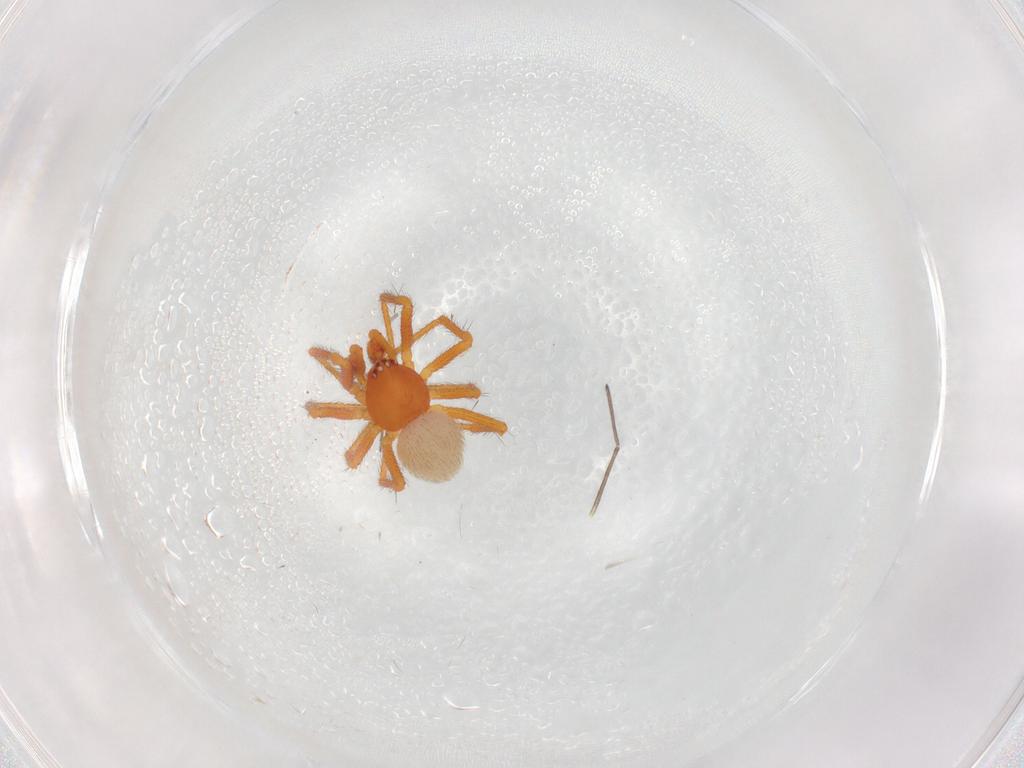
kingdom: Animalia
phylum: Arthropoda
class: Arachnida
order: Araneae
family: Theridiidae
